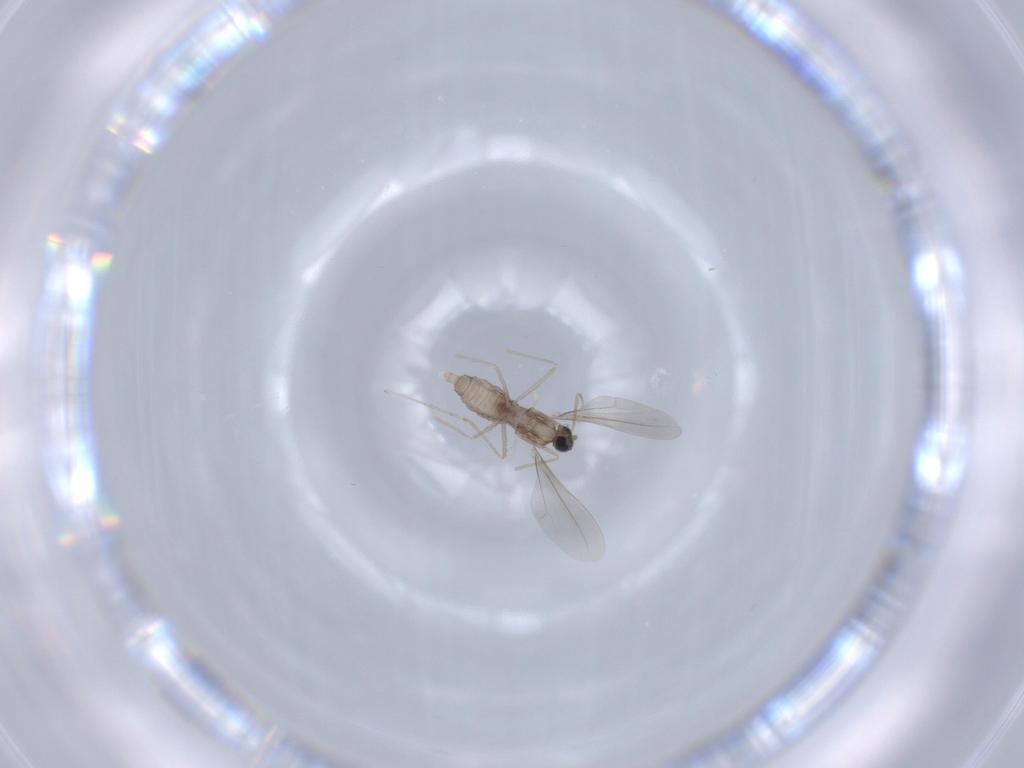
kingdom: Animalia
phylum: Arthropoda
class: Insecta
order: Diptera
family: Cecidomyiidae
